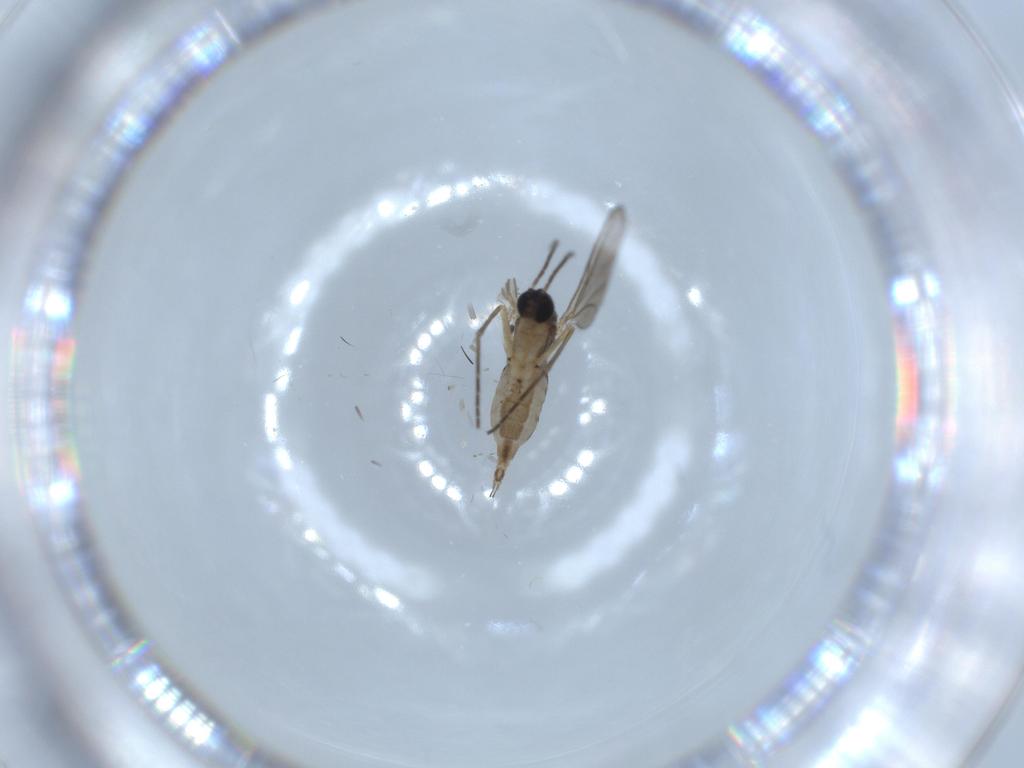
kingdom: Animalia
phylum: Arthropoda
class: Insecta
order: Diptera
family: Sciaridae
